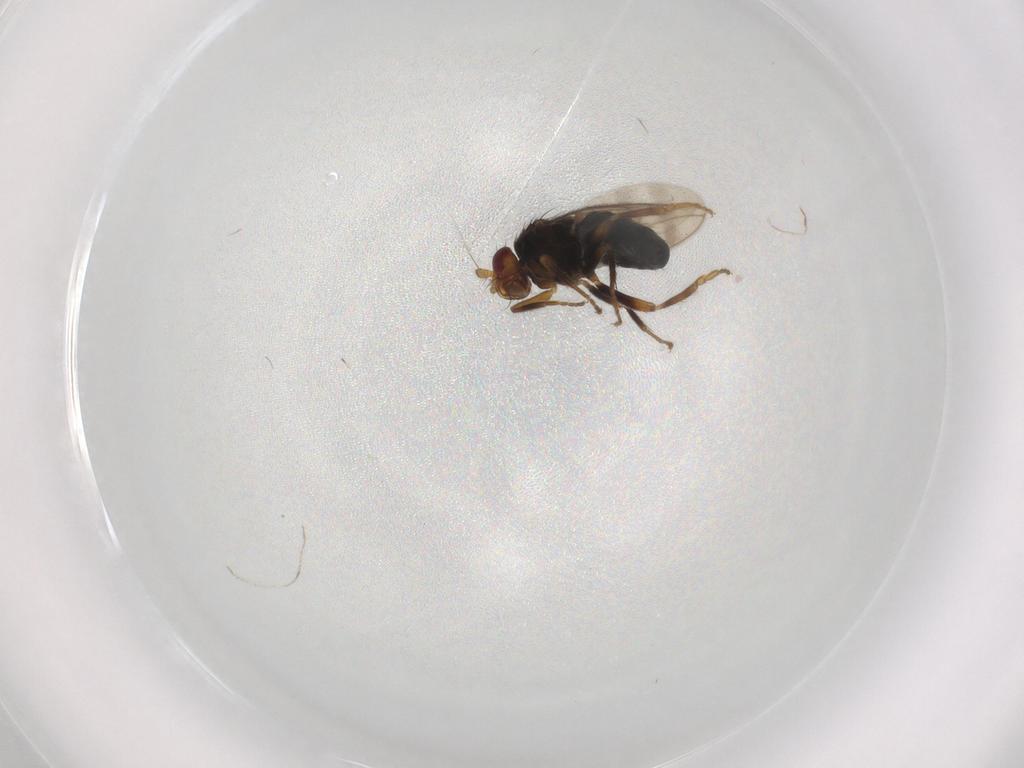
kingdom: Animalia
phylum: Arthropoda
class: Insecta
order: Diptera
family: Sphaeroceridae
